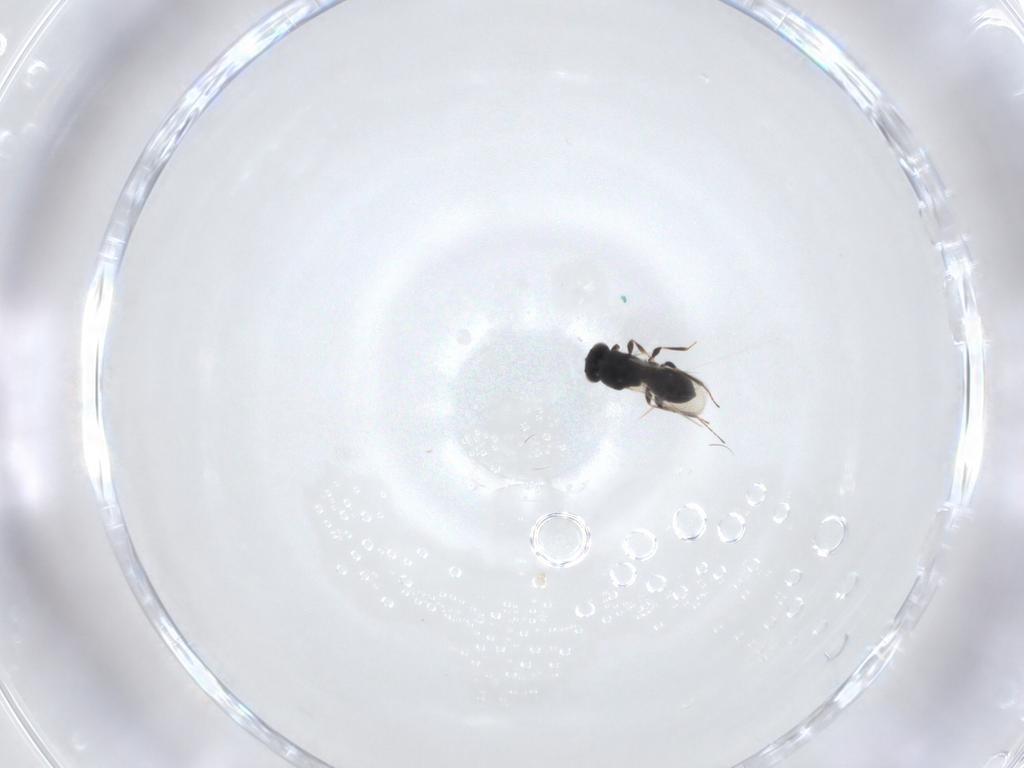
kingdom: Animalia
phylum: Arthropoda
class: Insecta
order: Hymenoptera
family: Platygastridae
